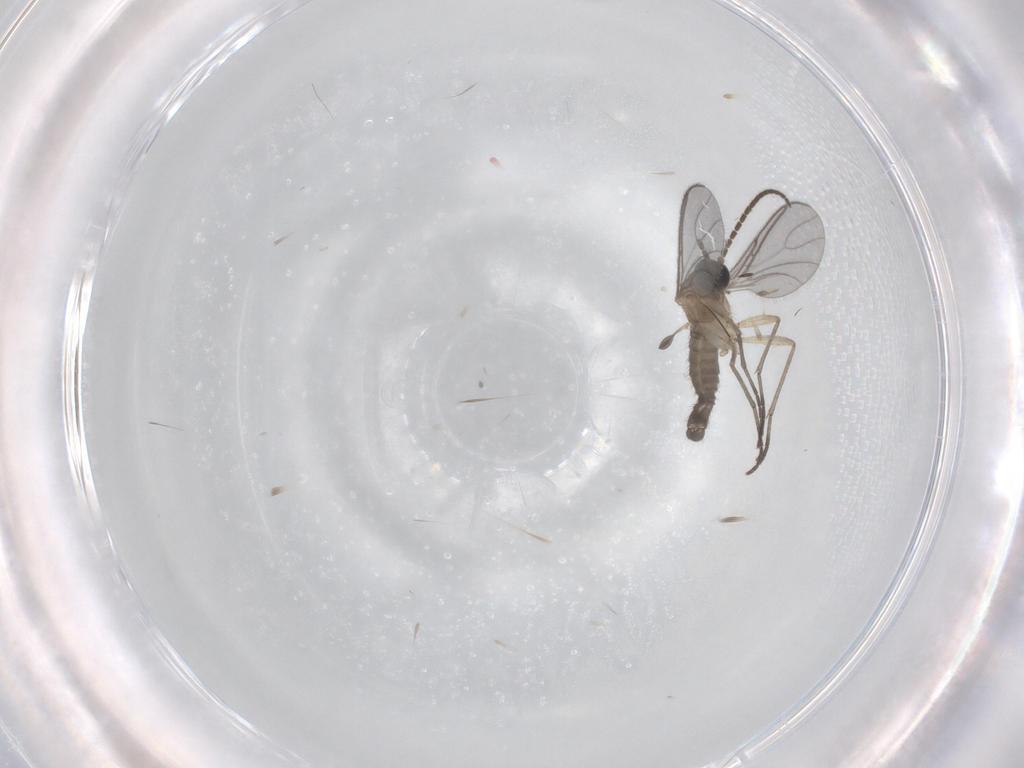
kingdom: Animalia
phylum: Arthropoda
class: Insecta
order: Diptera
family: Sciaridae
